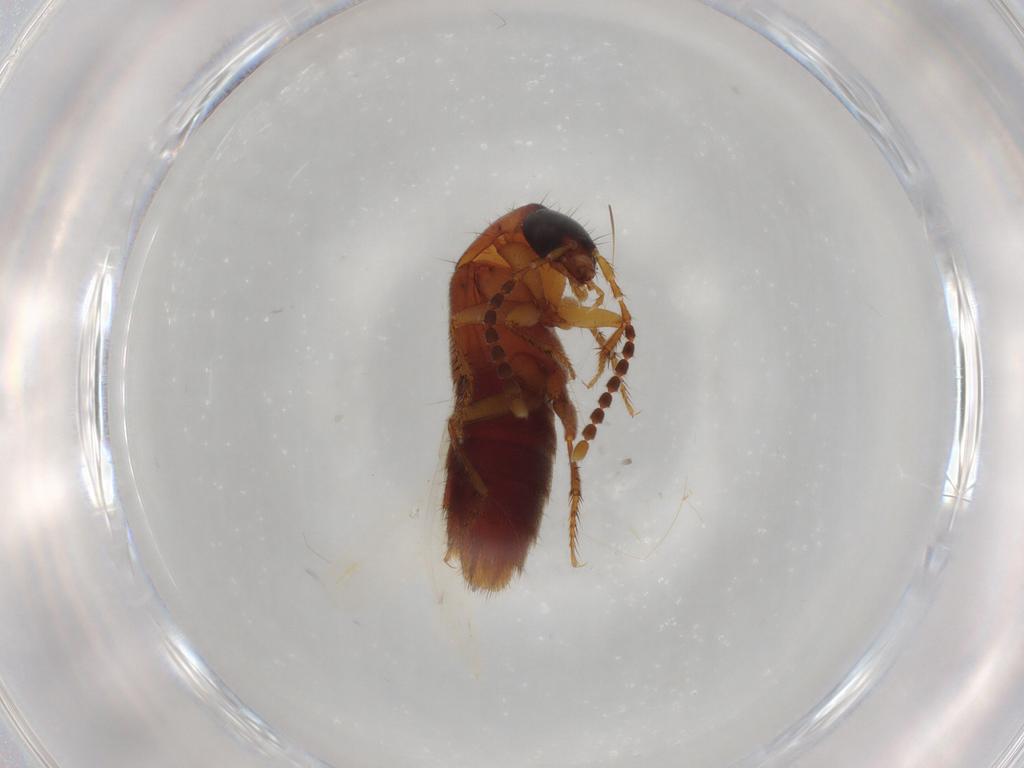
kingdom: Animalia
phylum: Arthropoda
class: Insecta
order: Coleoptera
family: Staphylinidae
